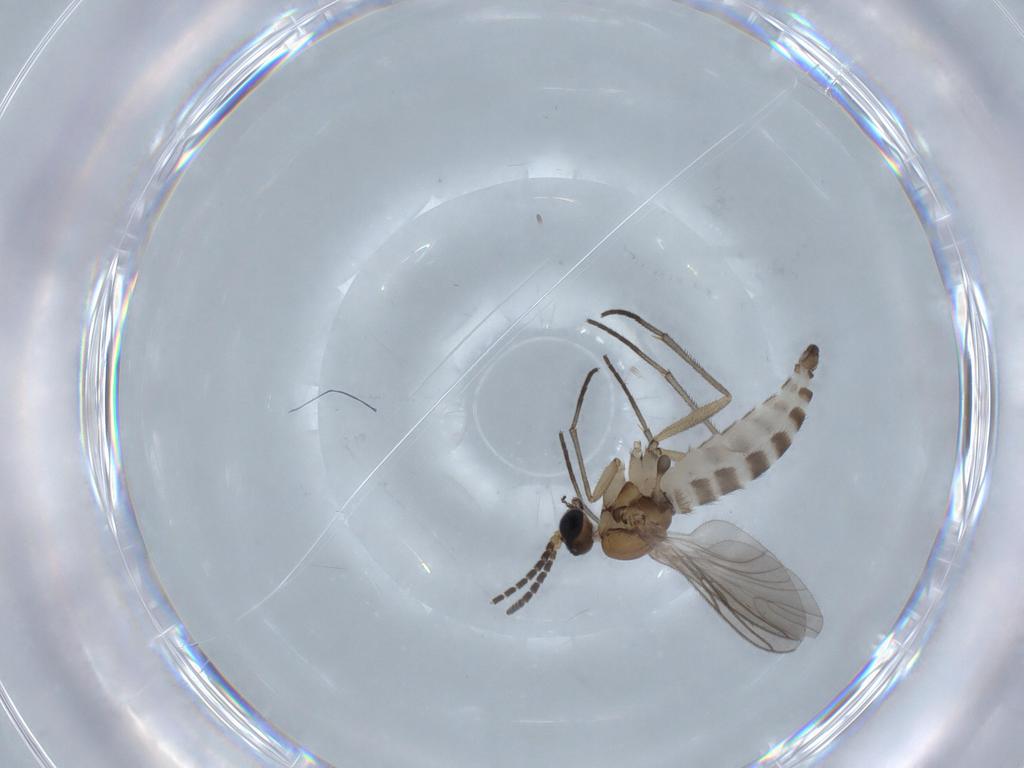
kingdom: Animalia
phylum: Arthropoda
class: Insecta
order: Diptera
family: Sciaridae
